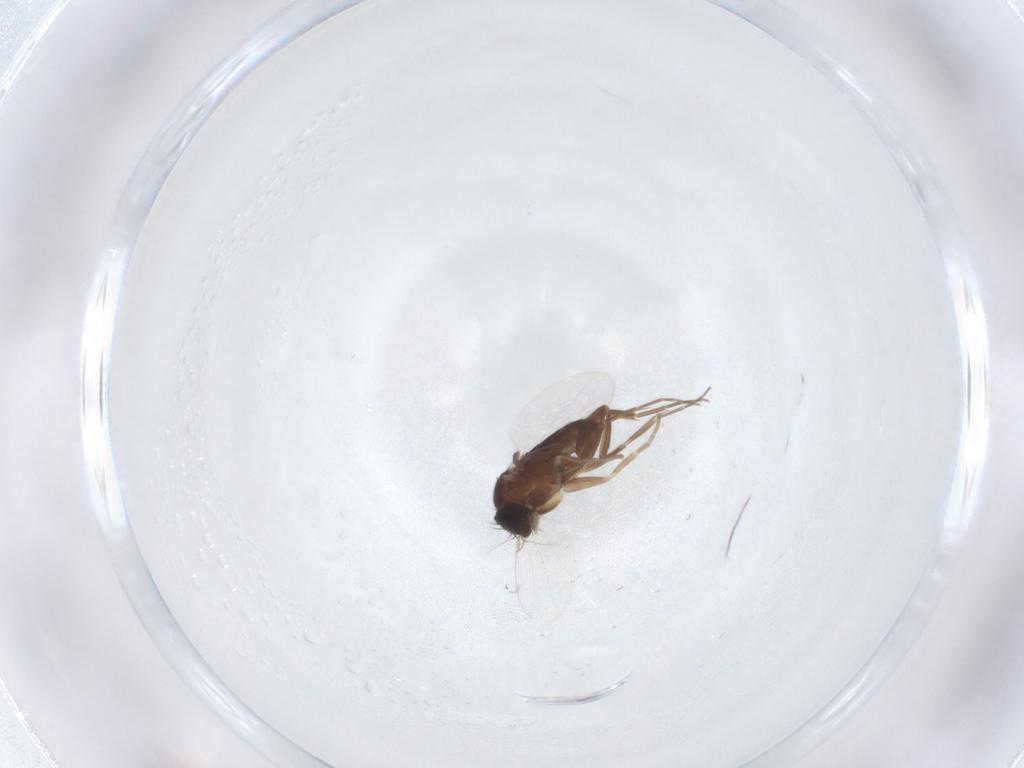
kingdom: Animalia
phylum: Arthropoda
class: Insecta
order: Diptera
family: Phoridae
